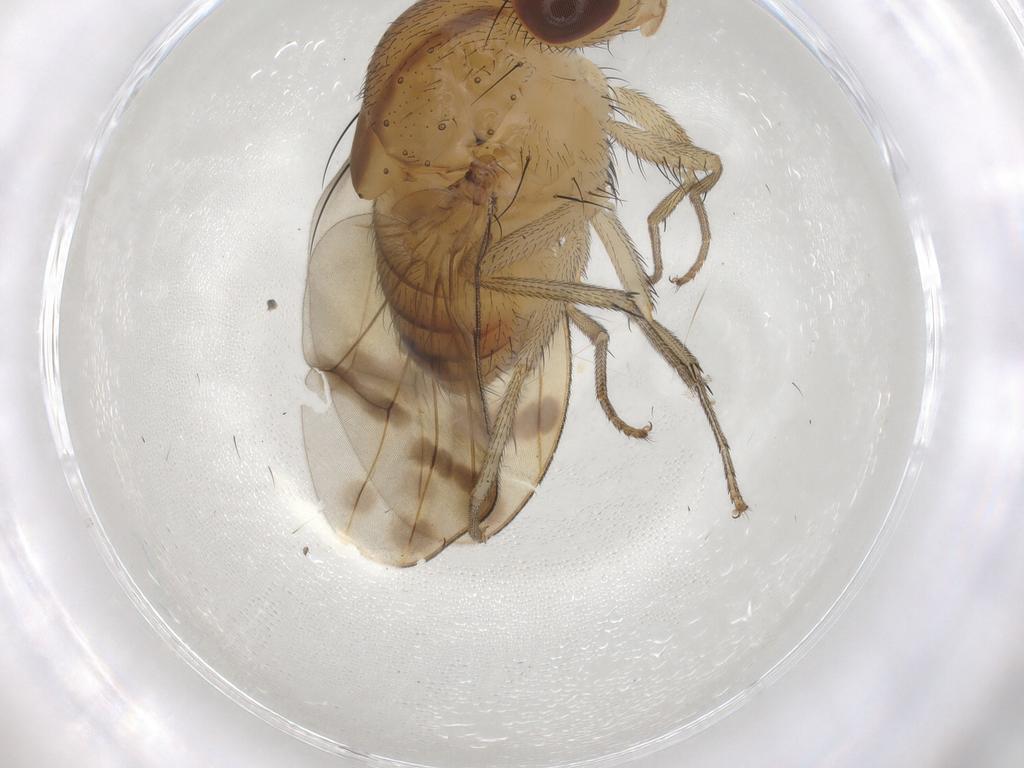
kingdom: Animalia
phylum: Arthropoda
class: Insecta
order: Diptera
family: Lauxaniidae
